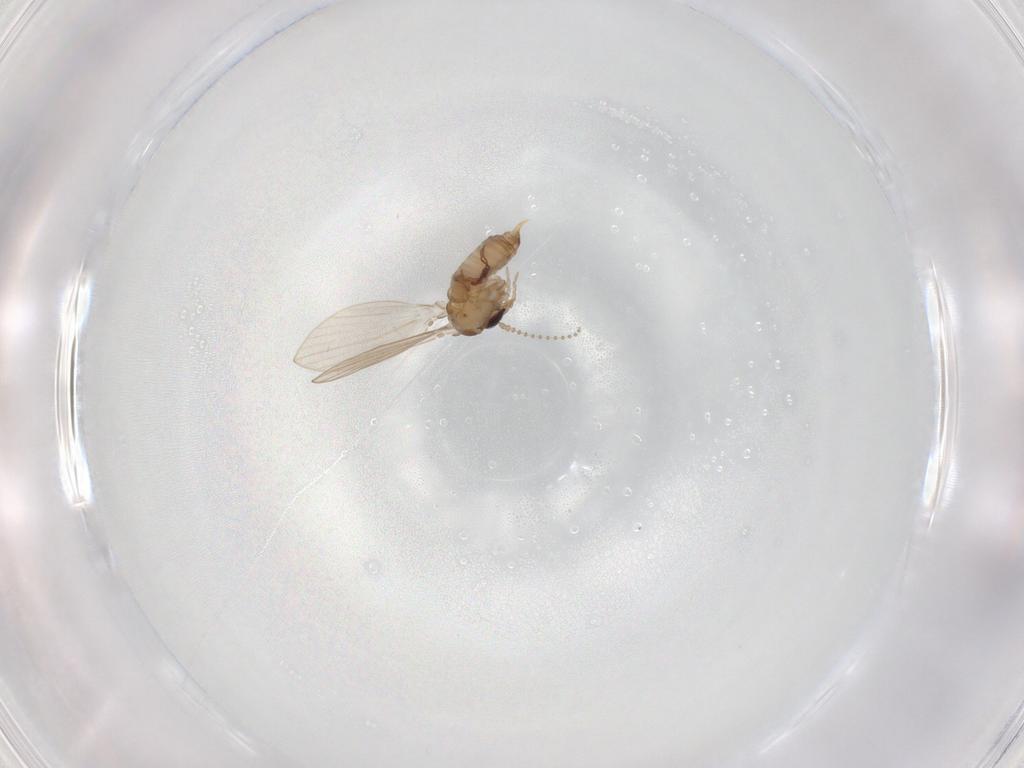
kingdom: Animalia
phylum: Arthropoda
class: Insecta
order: Diptera
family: Psychodidae
